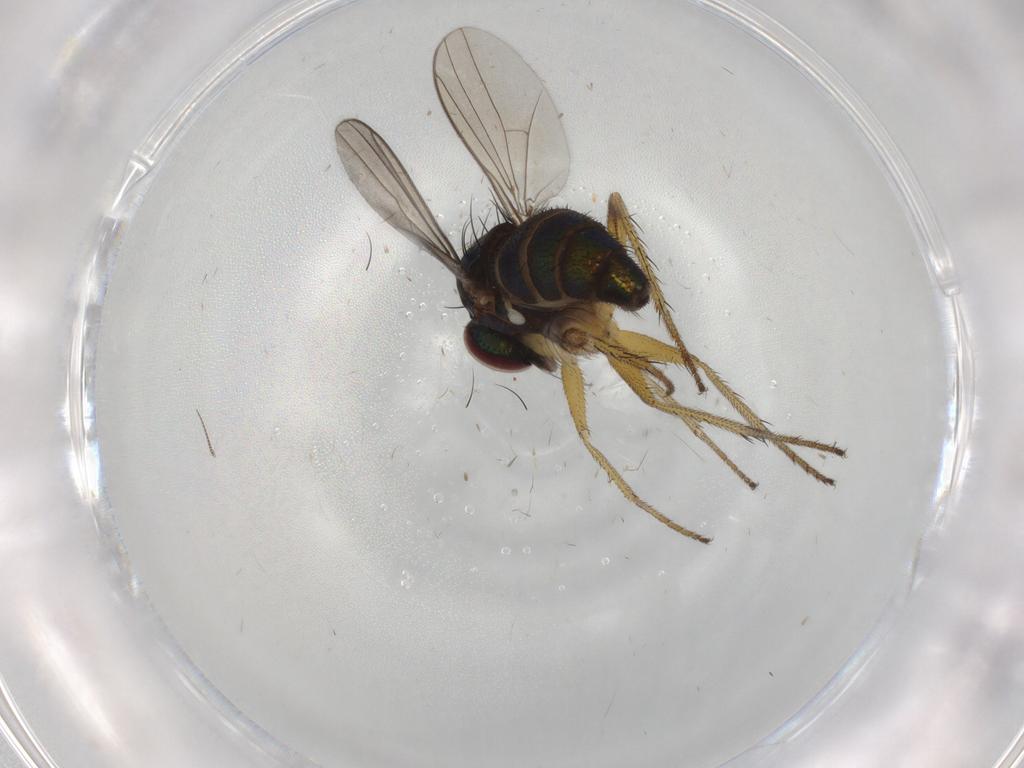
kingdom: Animalia
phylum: Arthropoda
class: Insecta
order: Diptera
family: Dolichopodidae
